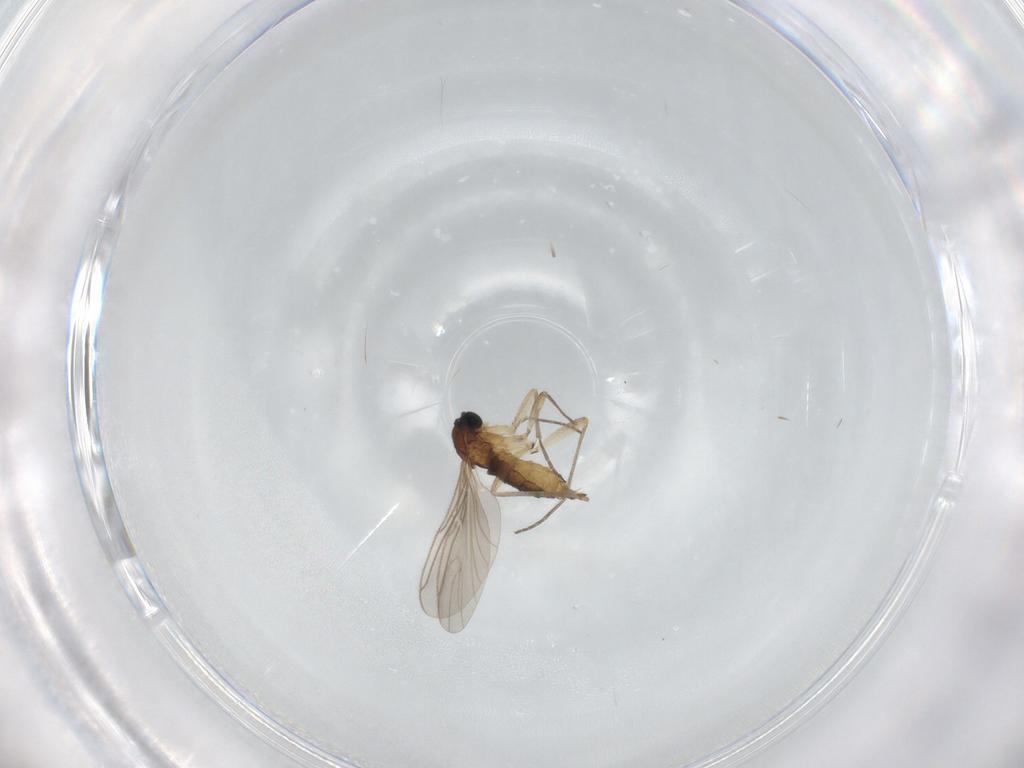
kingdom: Animalia
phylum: Arthropoda
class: Insecta
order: Diptera
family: Sciaridae
